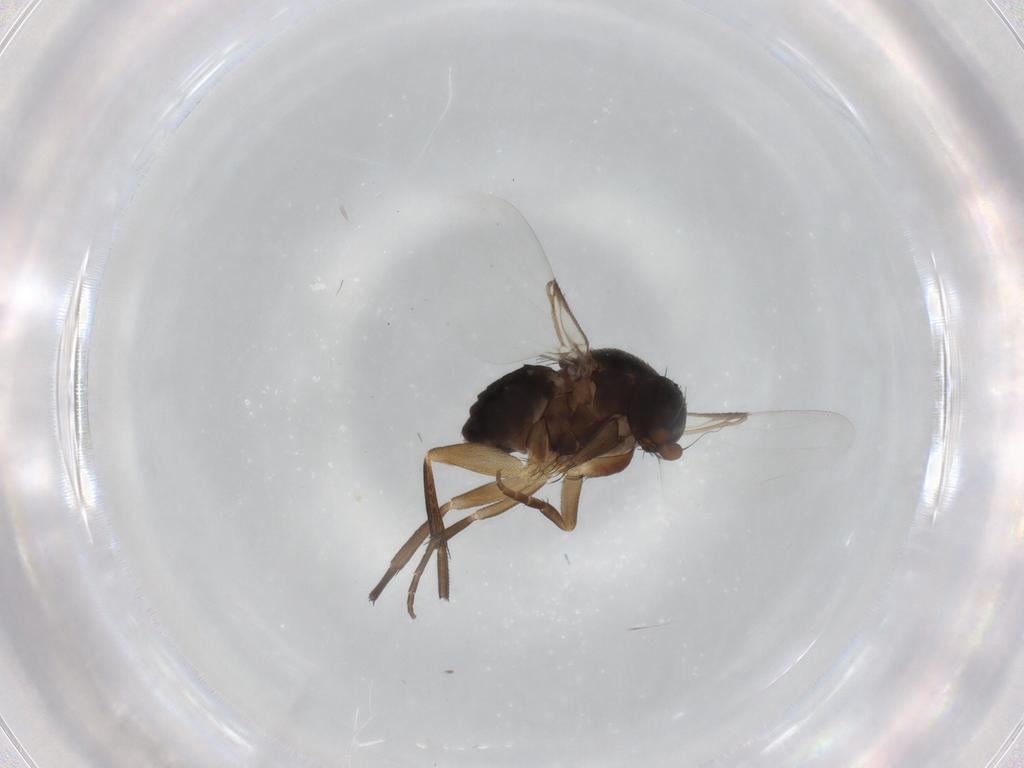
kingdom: Animalia
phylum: Arthropoda
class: Insecta
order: Diptera
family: Phoridae
